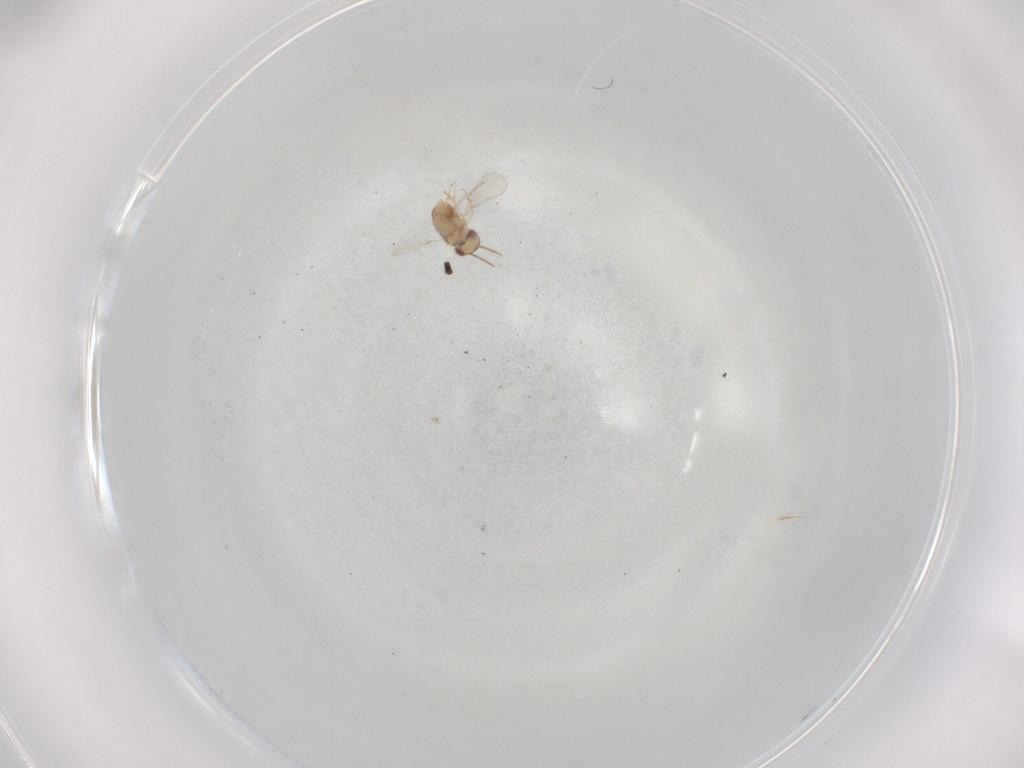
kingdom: Animalia
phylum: Arthropoda
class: Insecta
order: Hymenoptera
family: Aphelinidae
